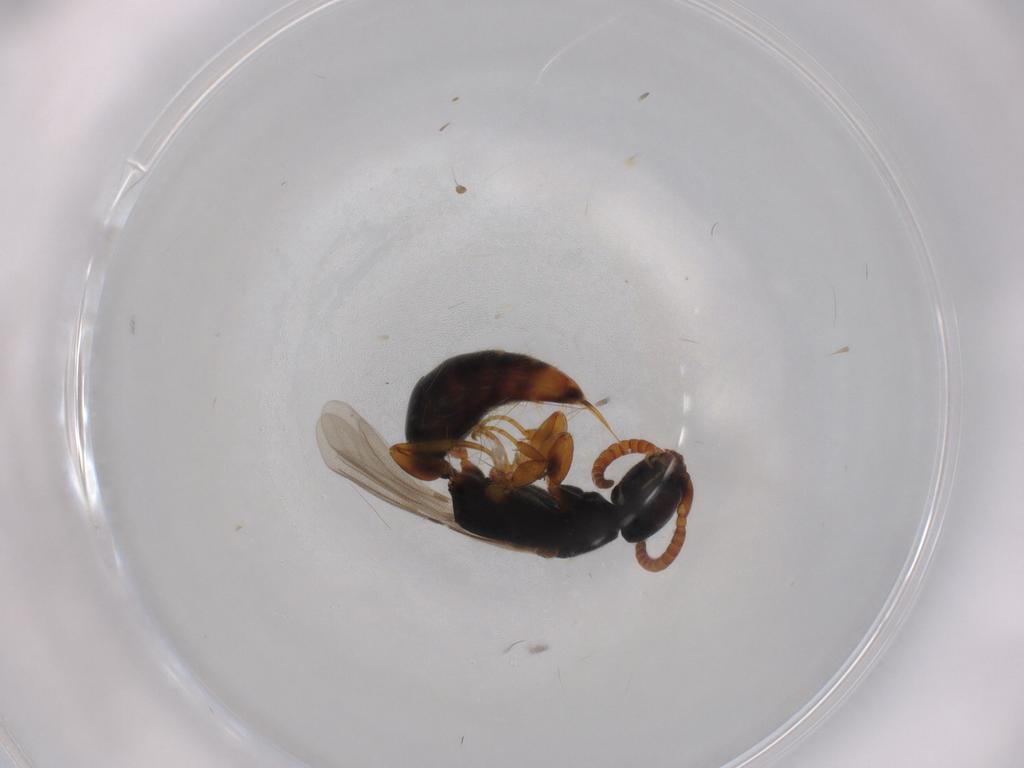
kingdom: Animalia
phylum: Arthropoda
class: Insecta
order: Hymenoptera
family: Bethylidae
